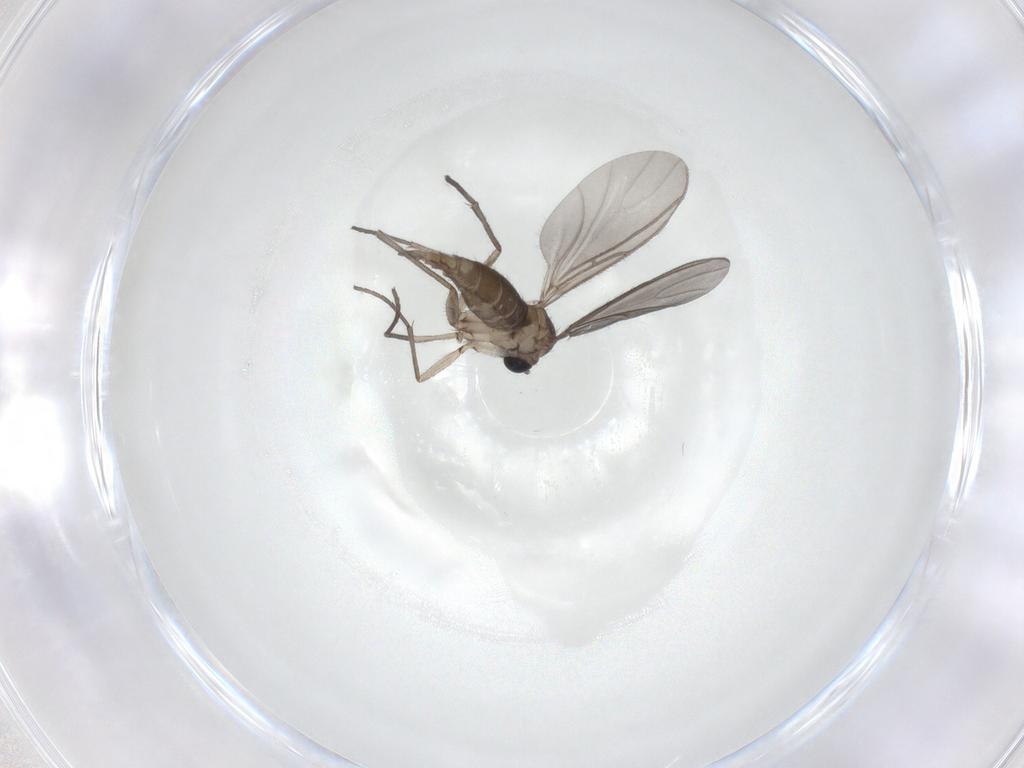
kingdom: Animalia
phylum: Arthropoda
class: Insecta
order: Diptera
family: Sciaridae
